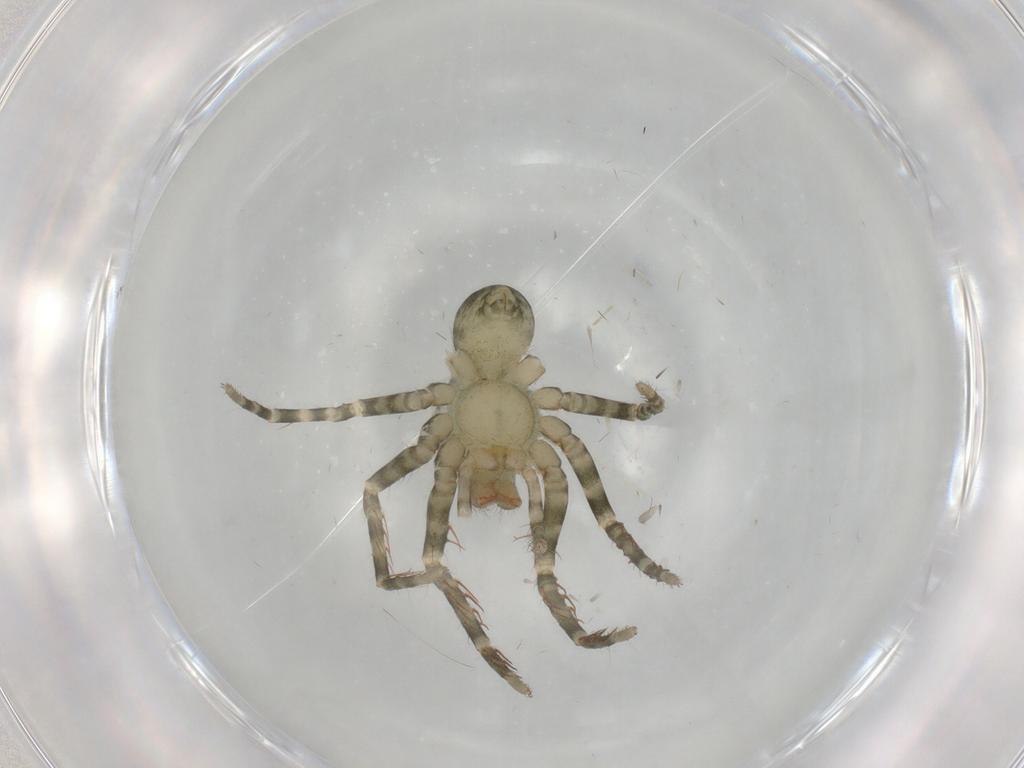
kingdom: Animalia
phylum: Arthropoda
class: Arachnida
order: Araneae
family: Ctenidae
